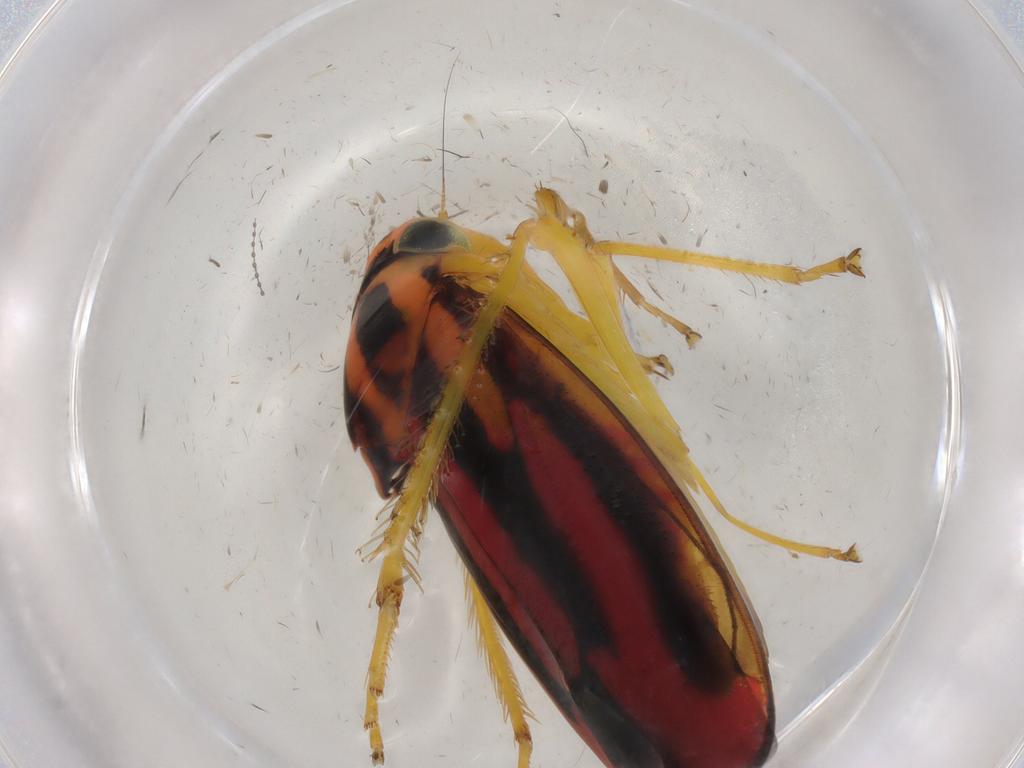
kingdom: Animalia
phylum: Arthropoda
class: Insecta
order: Hemiptera
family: Cicadellidae
